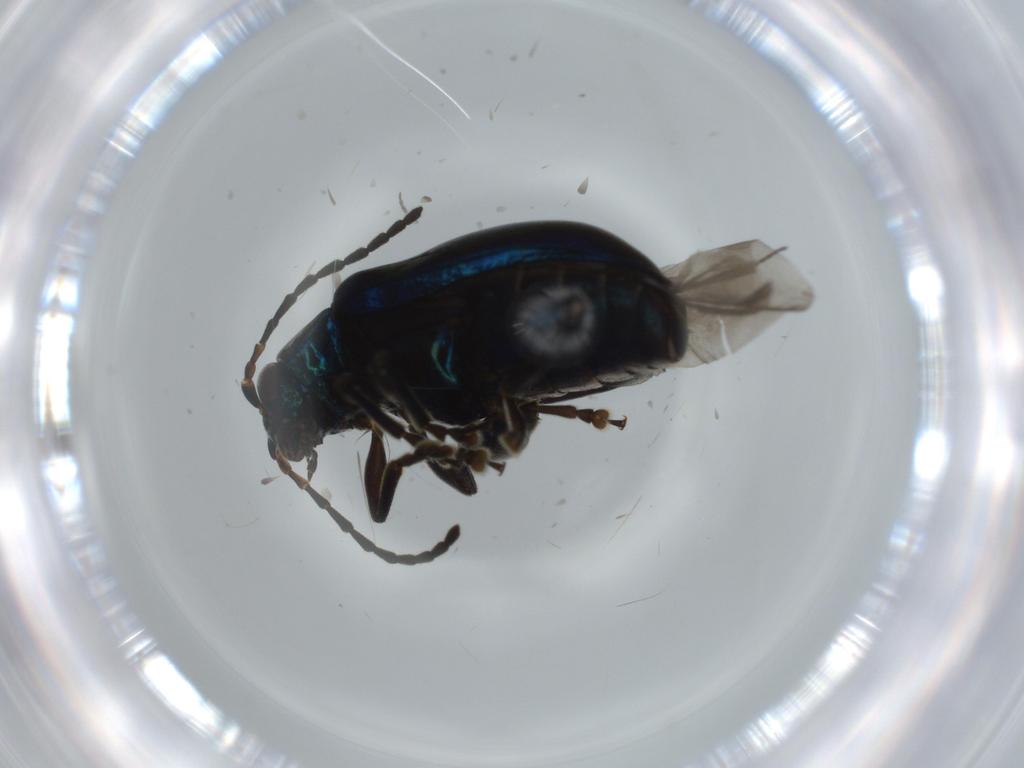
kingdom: Animalia
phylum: Arthropoda
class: Insecta
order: Coleoptera
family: Chrysomelidae
